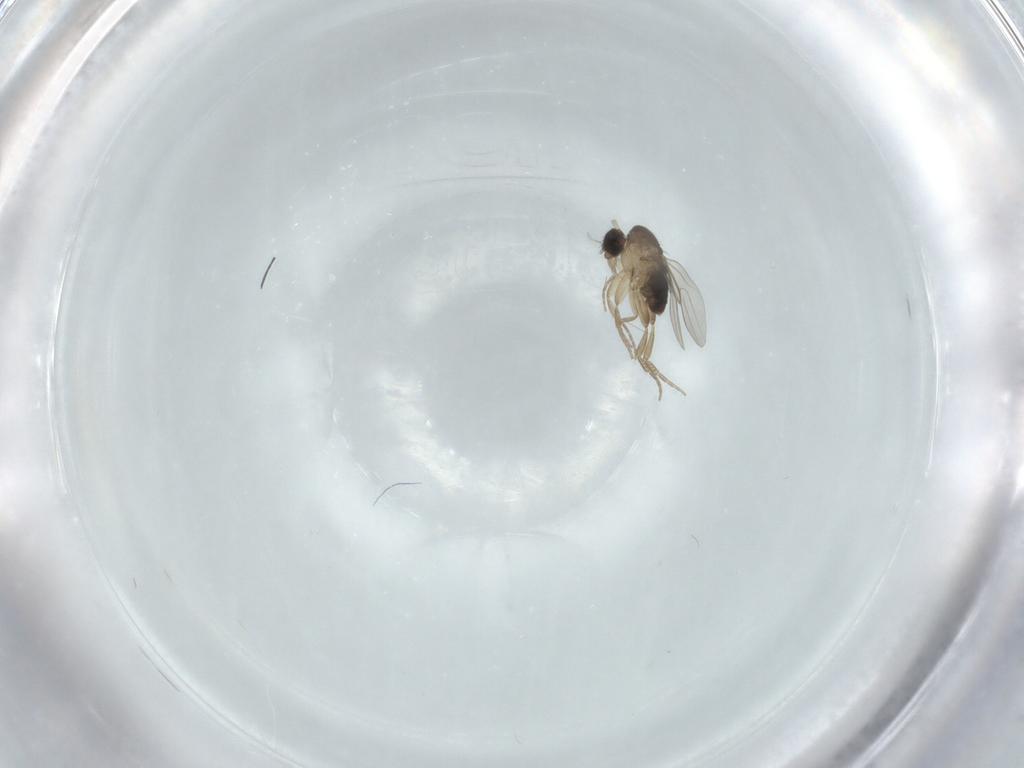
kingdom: Animalia
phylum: Arthropoda
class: Insecta
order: Diptera
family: Phoridae
